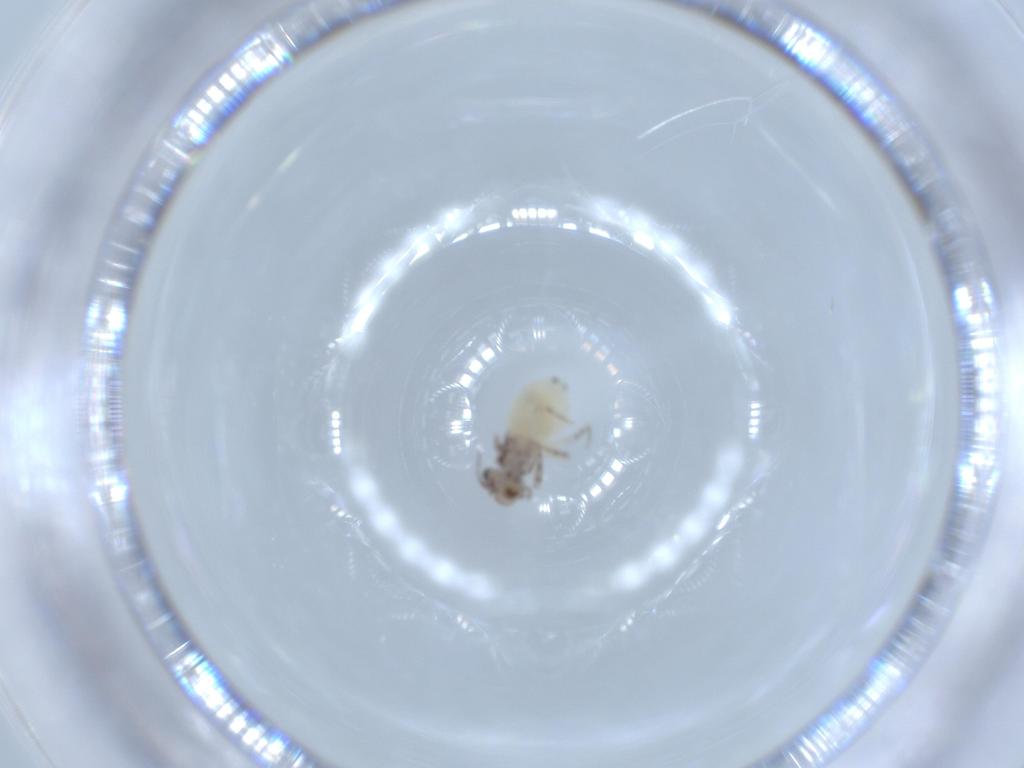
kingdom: Animalia
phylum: Arthropoda
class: Insecta
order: Psocodea
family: Lepidopsocidae
